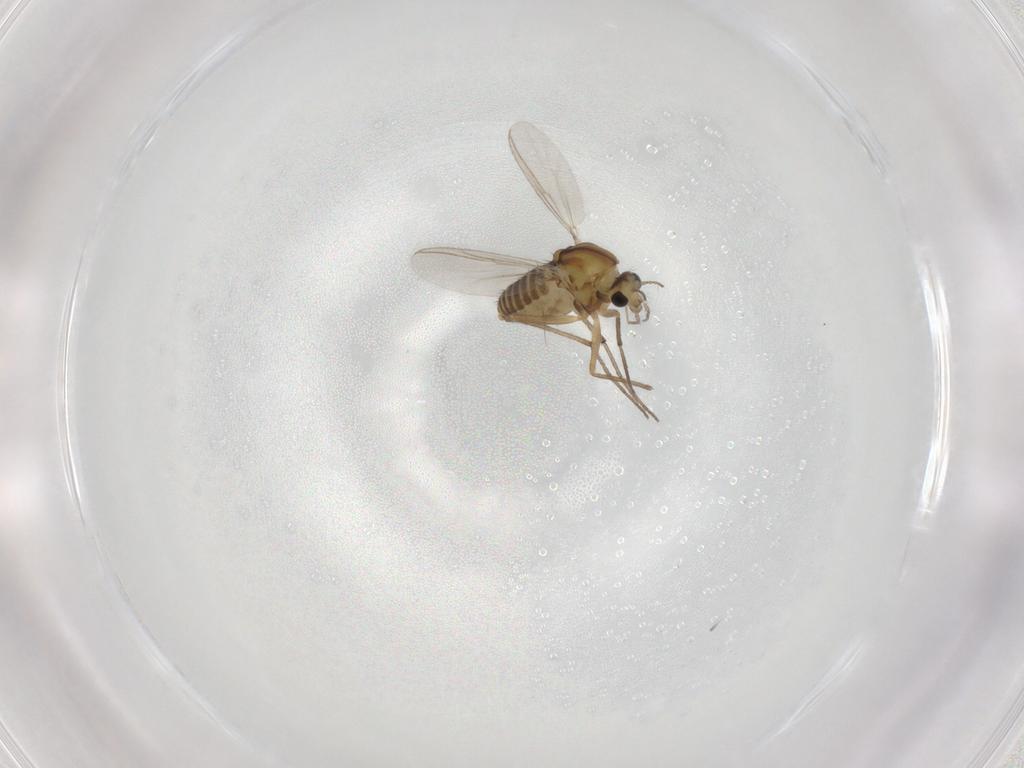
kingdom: Animalia
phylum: Arthropoda
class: Insecta
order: Diptera
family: Chironomidae
